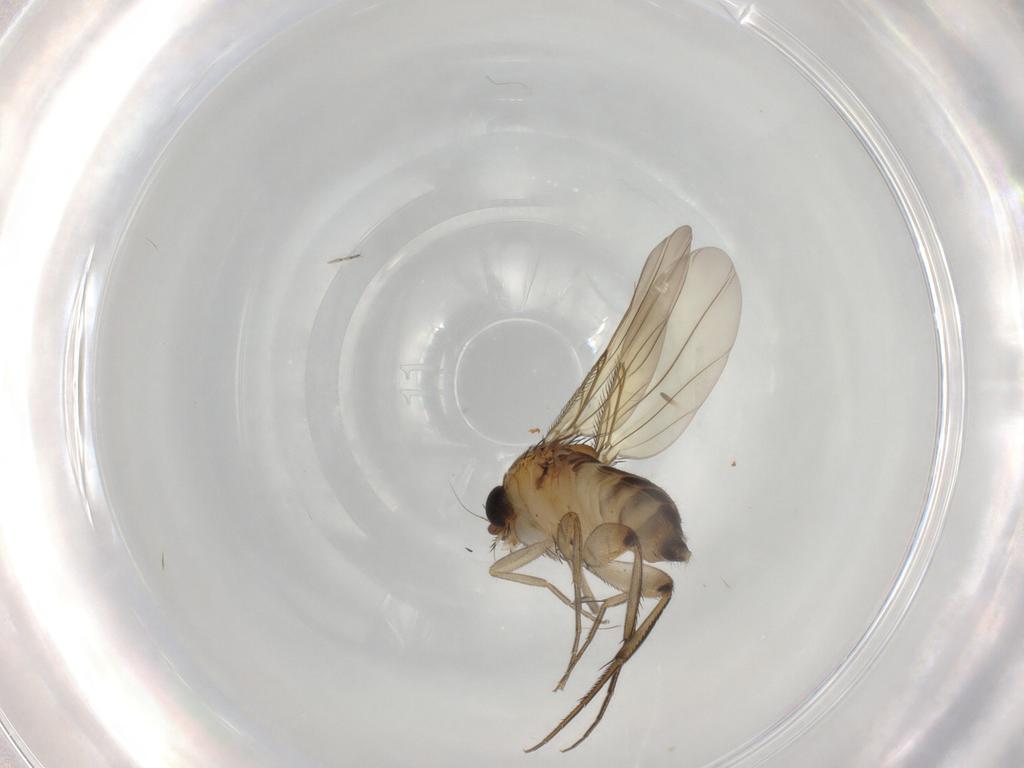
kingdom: Animalia
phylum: Arthropoda
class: Insecta
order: Diptera
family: Phoridae
